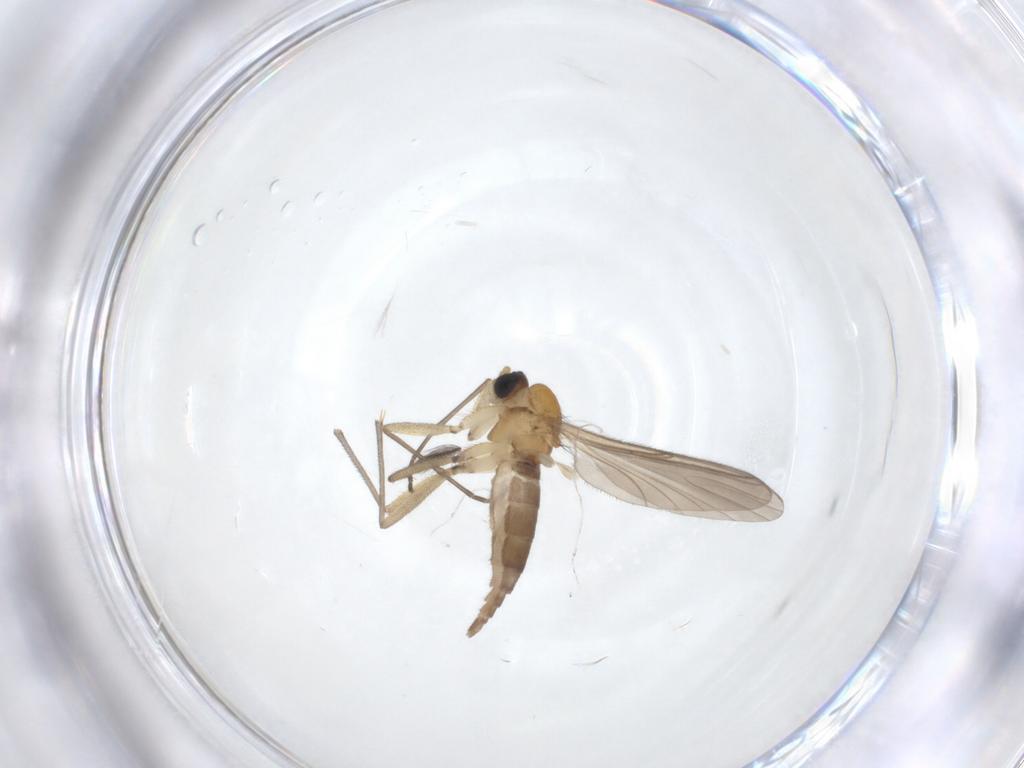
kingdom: Animalia
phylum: Arthropoda
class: Insecta
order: Diptera
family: Sciaridae
